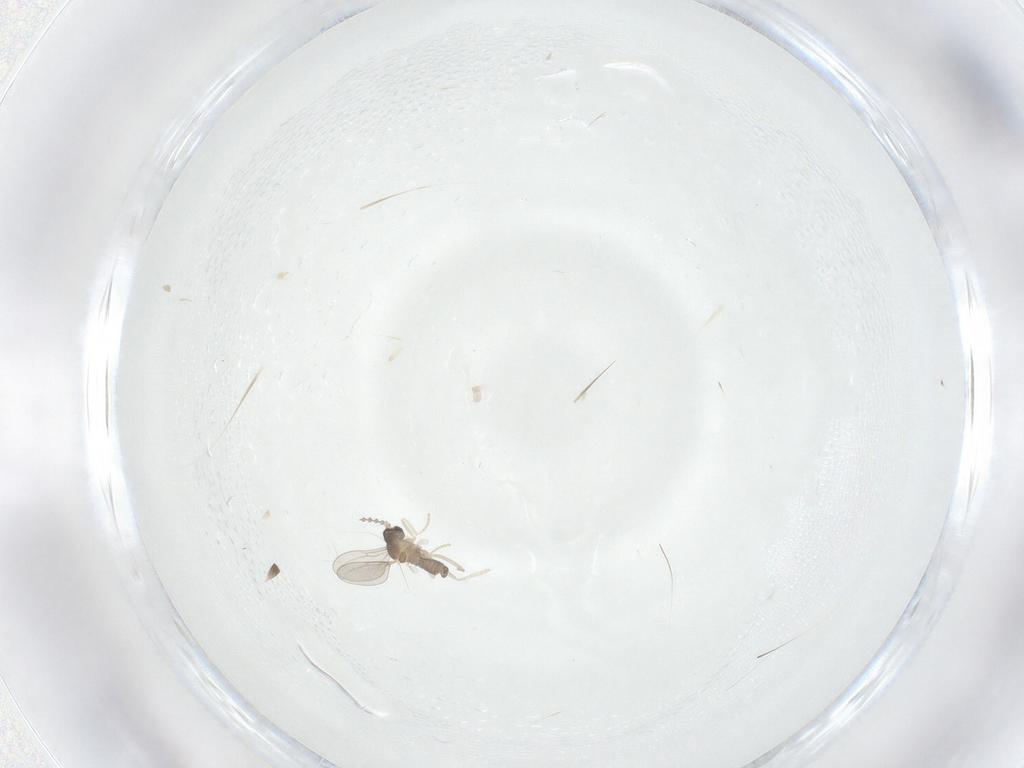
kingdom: Animalia
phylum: Arthropoda
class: Insecta
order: Diptera
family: Cecidomyiidae
